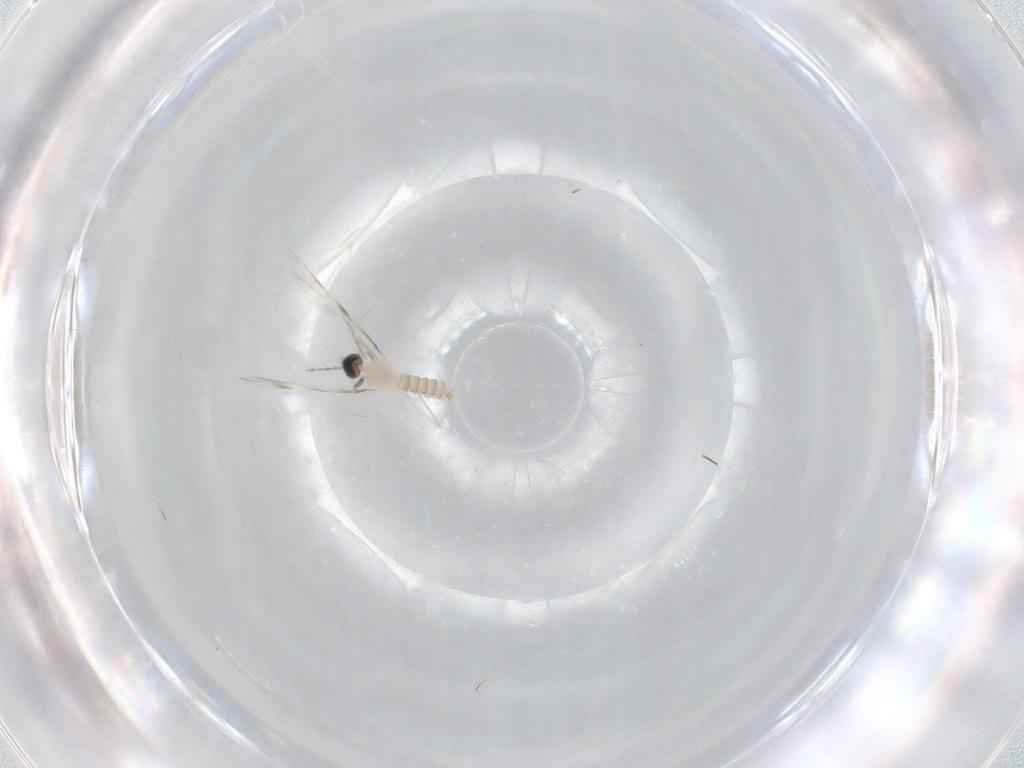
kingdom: Animalia
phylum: Arthropoda
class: Insecta
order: Diptera
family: Cecidomyiidae
